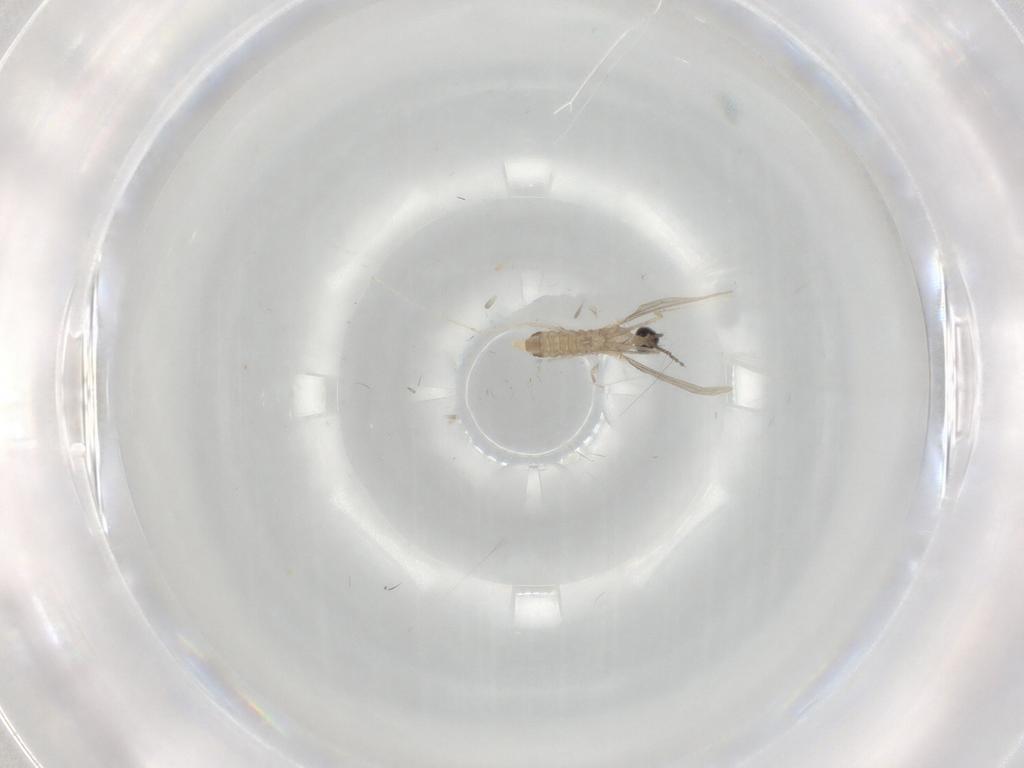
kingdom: Animalia
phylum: Arthropoda
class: Insecta
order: Diptera
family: Cecidomyiidae
